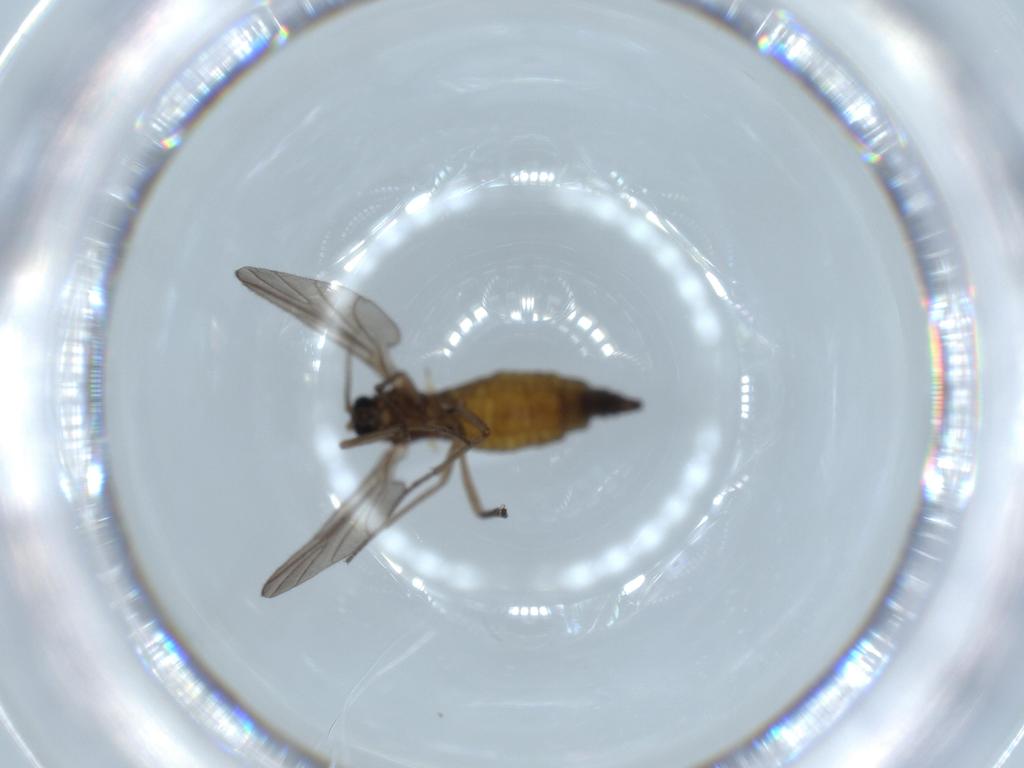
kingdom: Animalia
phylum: Arthropoda
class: Insecta
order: Diptera
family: Sciaridae
